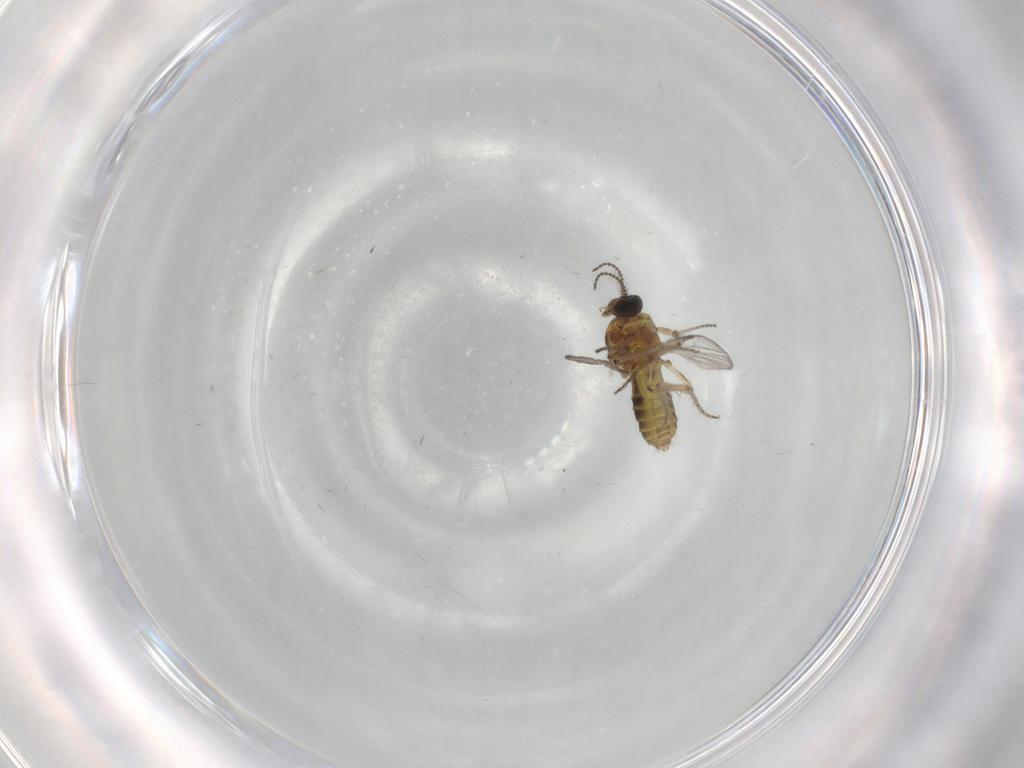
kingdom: Animalia
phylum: Arthropoda
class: Insecta
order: Diptera
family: Ceratopogonidae
